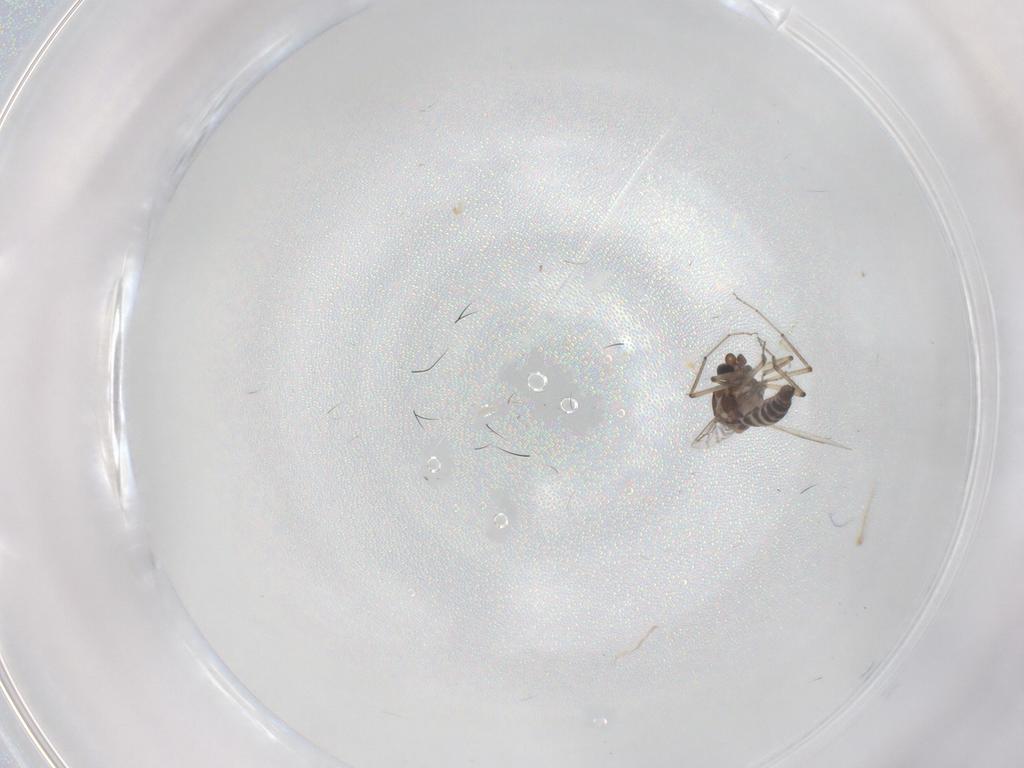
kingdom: Animalia
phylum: Arthropoda
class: Insecta
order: Diptera
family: Ceratopogonidae
